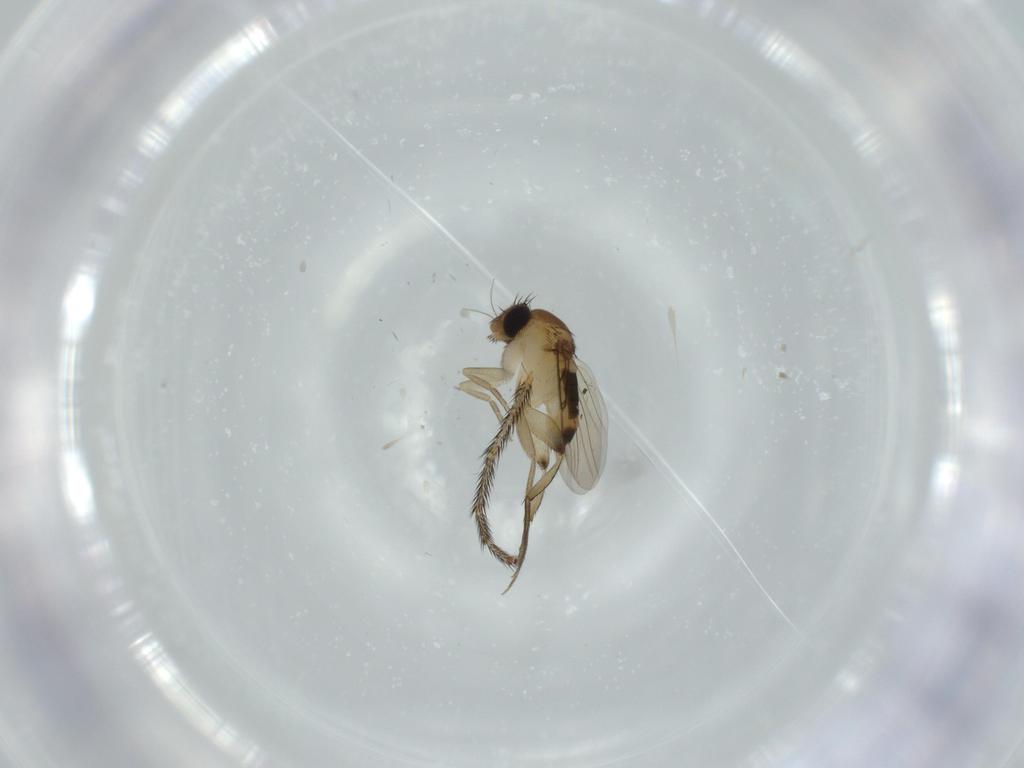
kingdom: Animalia
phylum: Arthropoda
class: Insecta
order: Diptera
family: Phoridae
